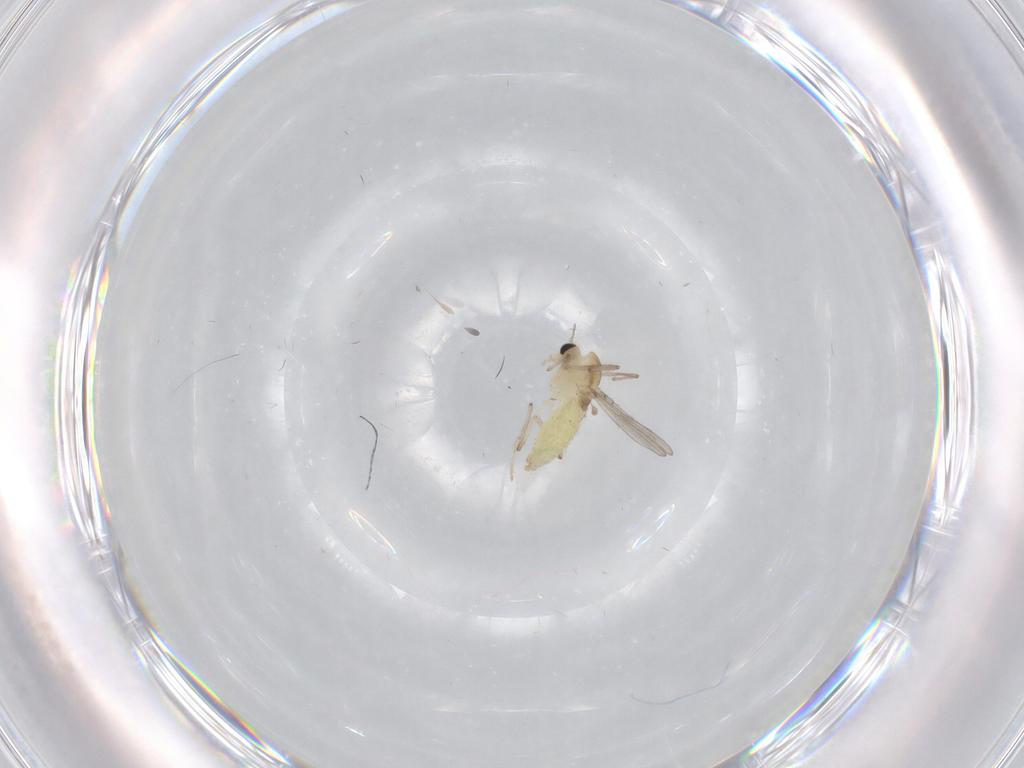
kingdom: Animalia
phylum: Arthropoda
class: Insecta
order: Diptera
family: Chironomidae
